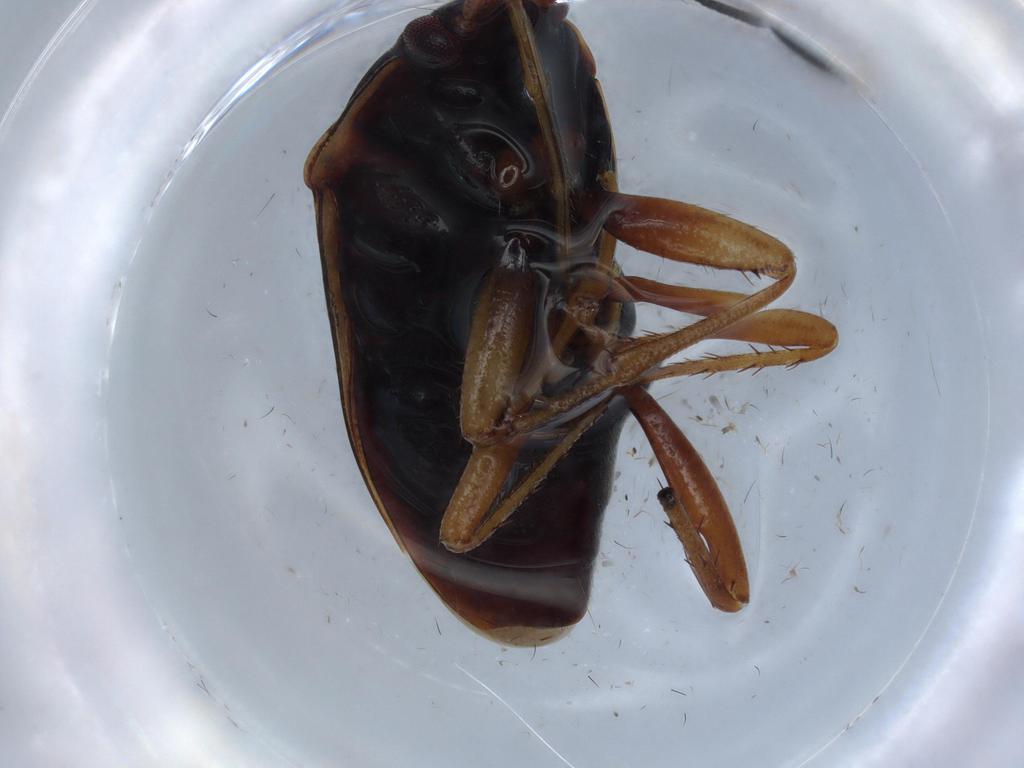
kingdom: Animalia
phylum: Arthropoda
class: Insecta
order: Hemiptera
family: Rhyparochromidae
